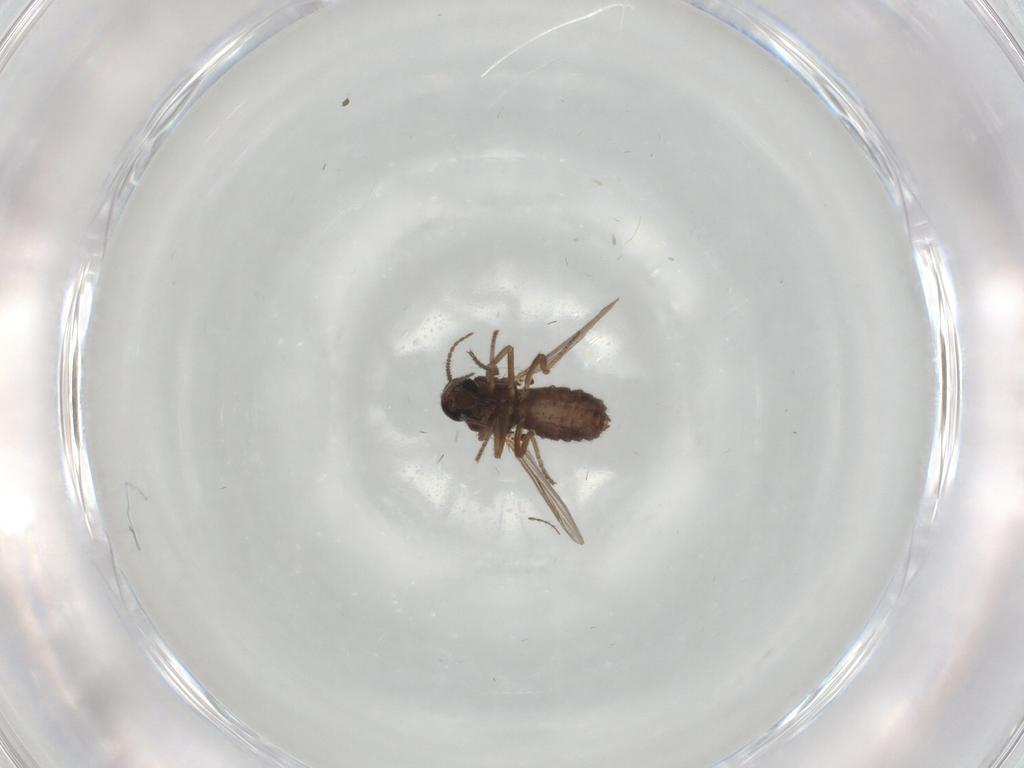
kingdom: Animalia
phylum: Arthropoda
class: Insecta
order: Diptera
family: Ceratopogonidae
